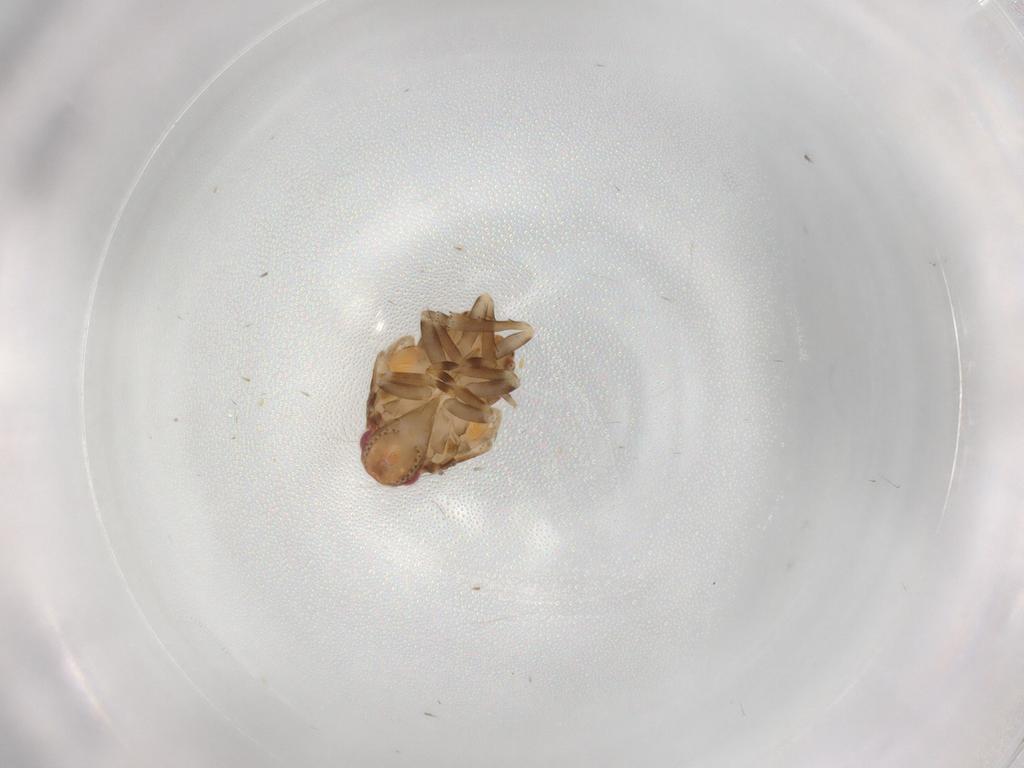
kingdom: Animalia
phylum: Arthropoda
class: Insecta
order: Hemiptera
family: Flatidae
